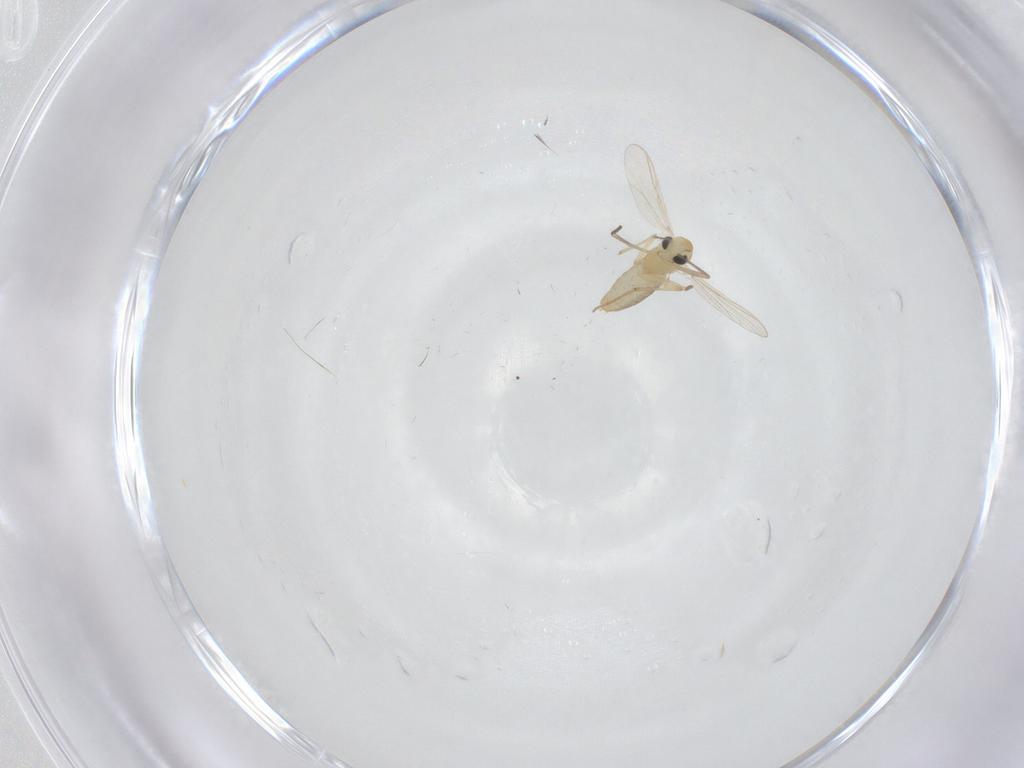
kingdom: Animalia
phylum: Arthropoda
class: Insecta
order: Diptera
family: Chironomidae
